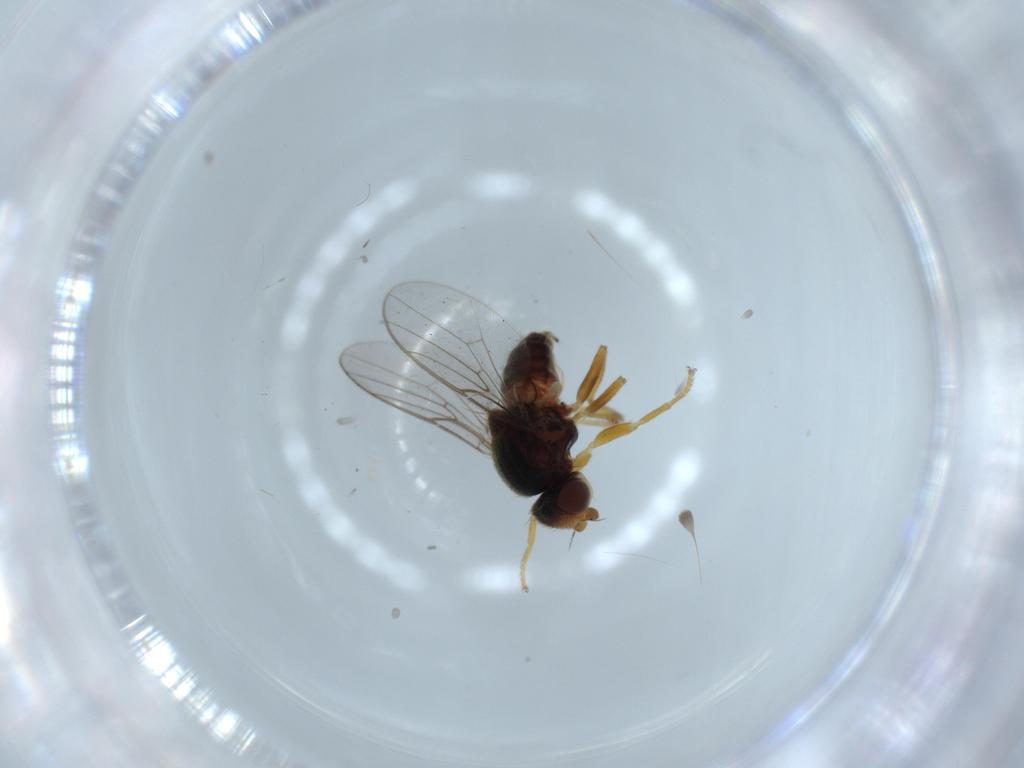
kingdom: Animalia
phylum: Arthropoda
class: Insecta
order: Diptera
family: Chloropidae
